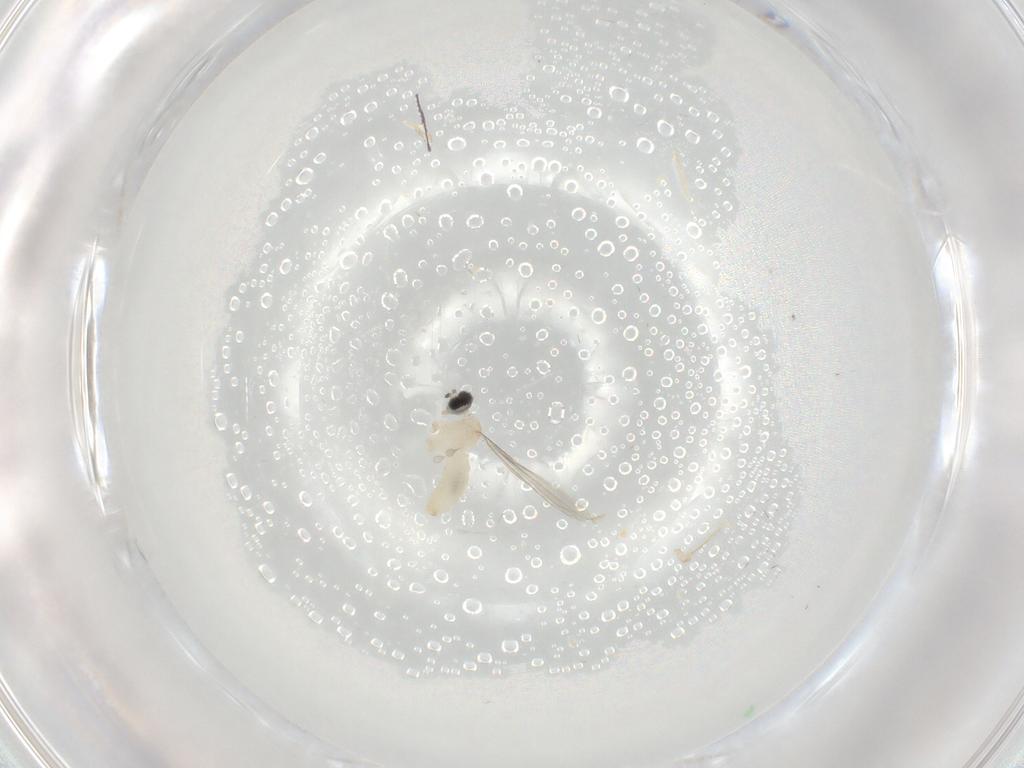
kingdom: Animalia
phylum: Arthropoda
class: Insecta
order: Diptera
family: Cecidomyiidae
